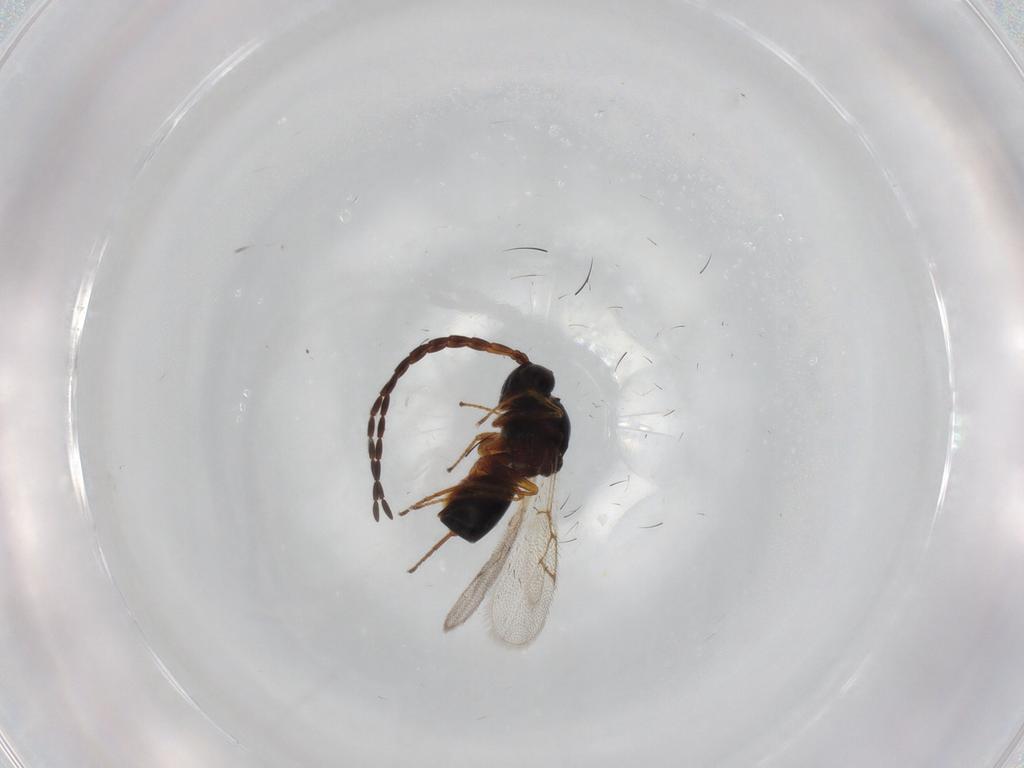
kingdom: Animalia
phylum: Arthropoda
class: Insecta
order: Hymenoptera
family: Figitidae
